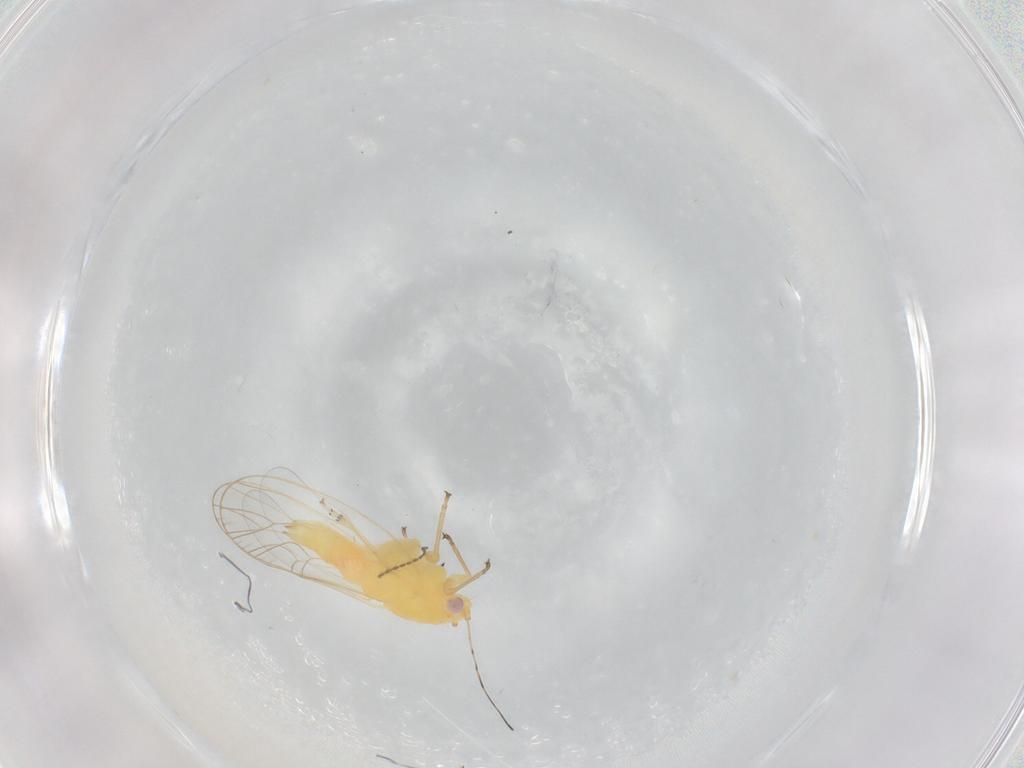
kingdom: Animalia
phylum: Arthropoda
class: Insecta
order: Hemiptera
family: Psyllidae
